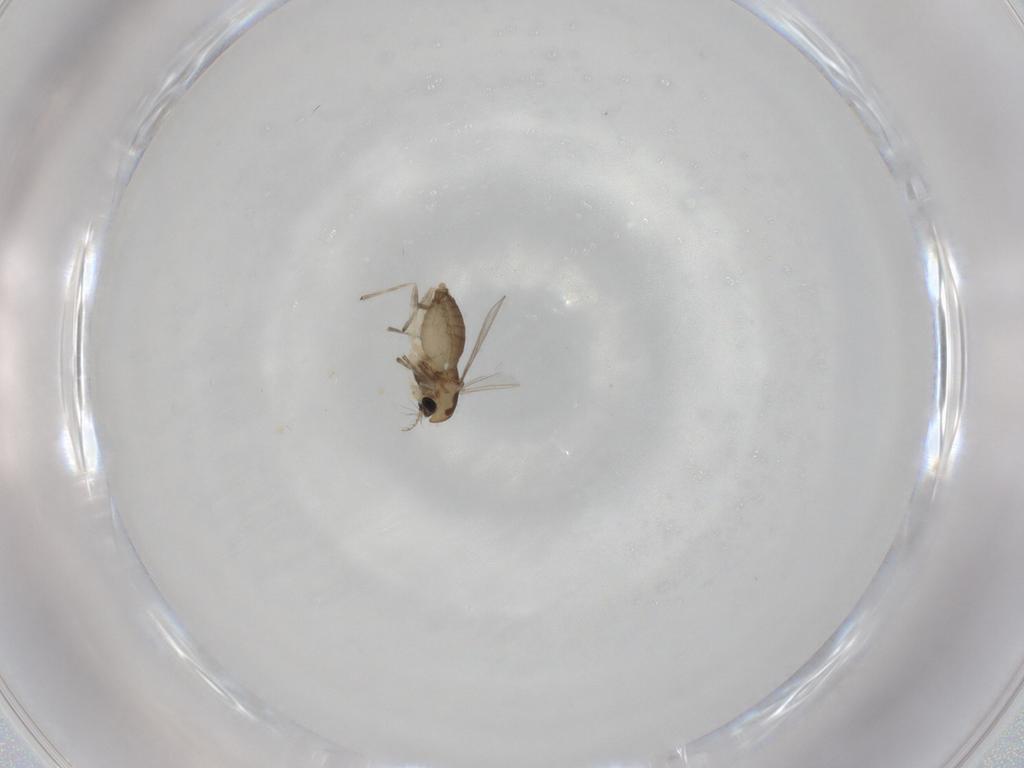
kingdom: Animalia
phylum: Arthropoda
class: Insecta
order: Diptera
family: Chironomidae
